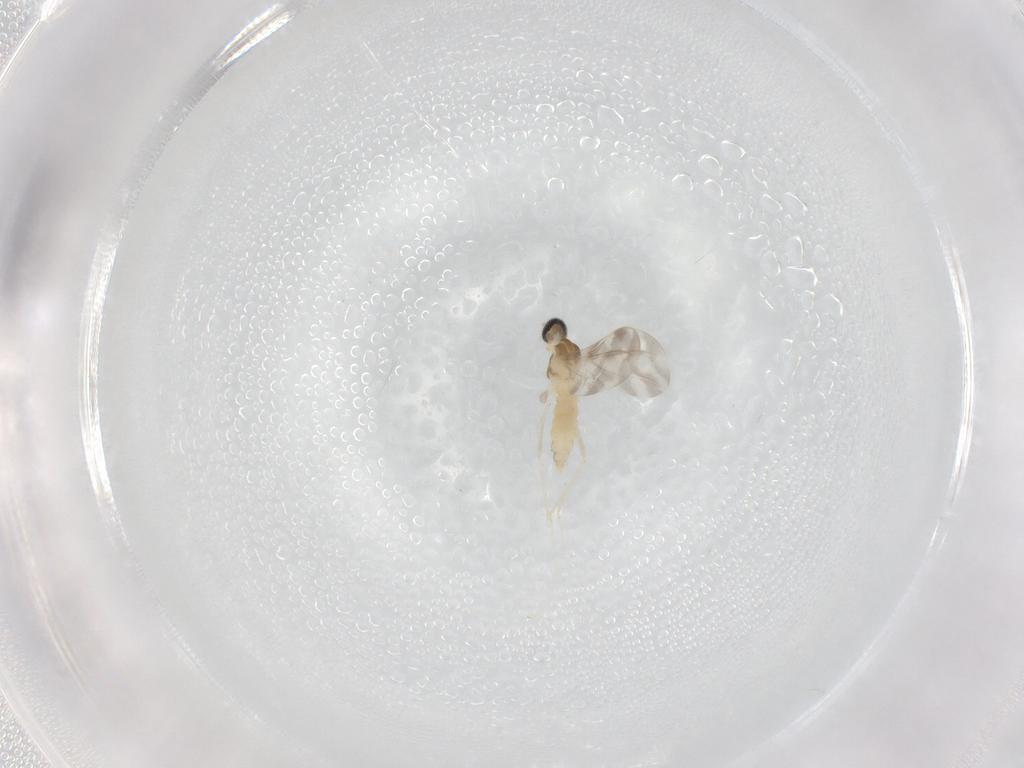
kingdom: Animalia
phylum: Arthropoda
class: Insecta
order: Diptera
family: Cecidomyiidae
